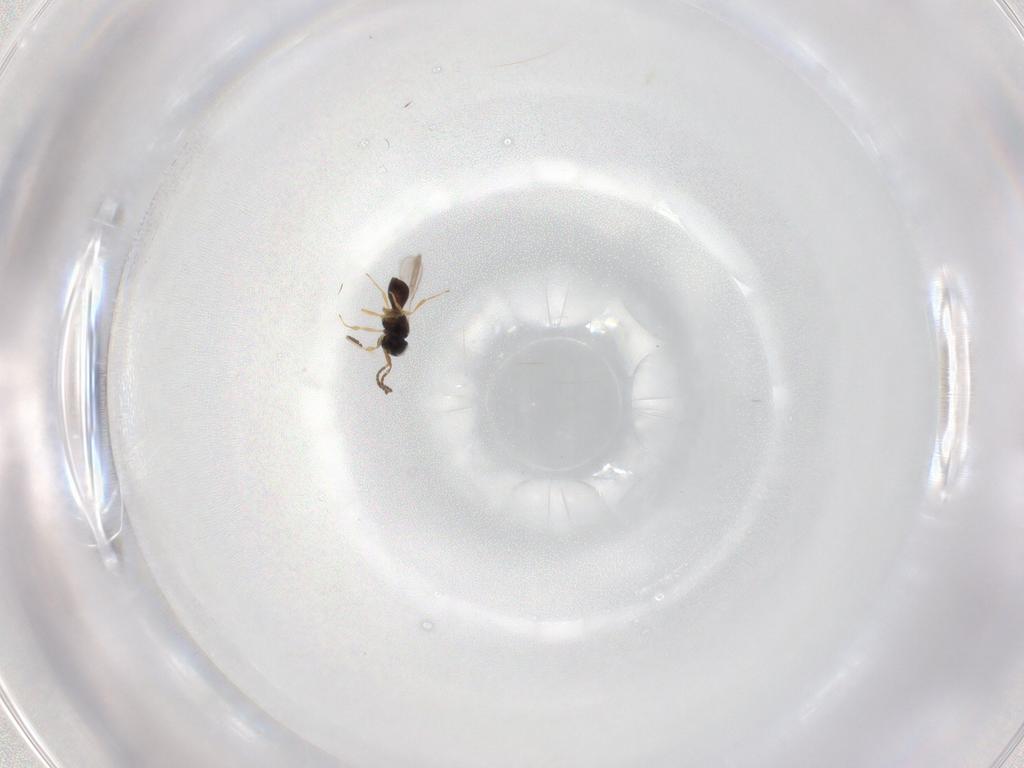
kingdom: Animalia
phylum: Arthropoda
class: Insecta
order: Hymenoptera
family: Scelionidae
